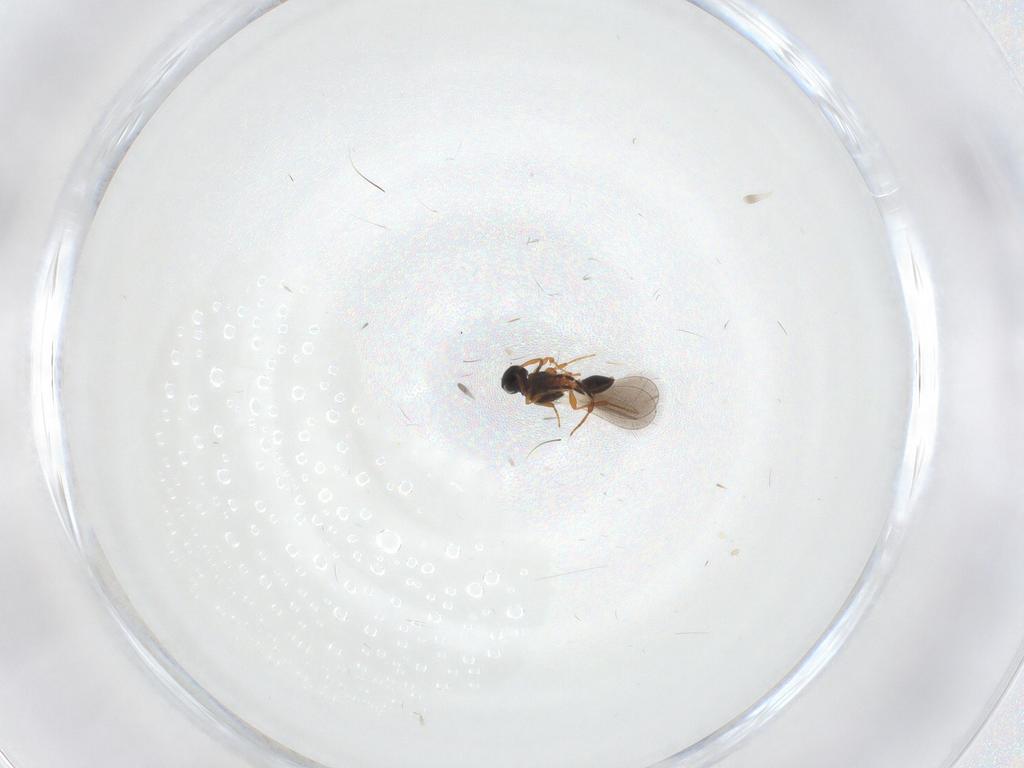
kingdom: Animalia
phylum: Arthropoda
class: Insecta
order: Hymenoptera
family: Platygastridae
